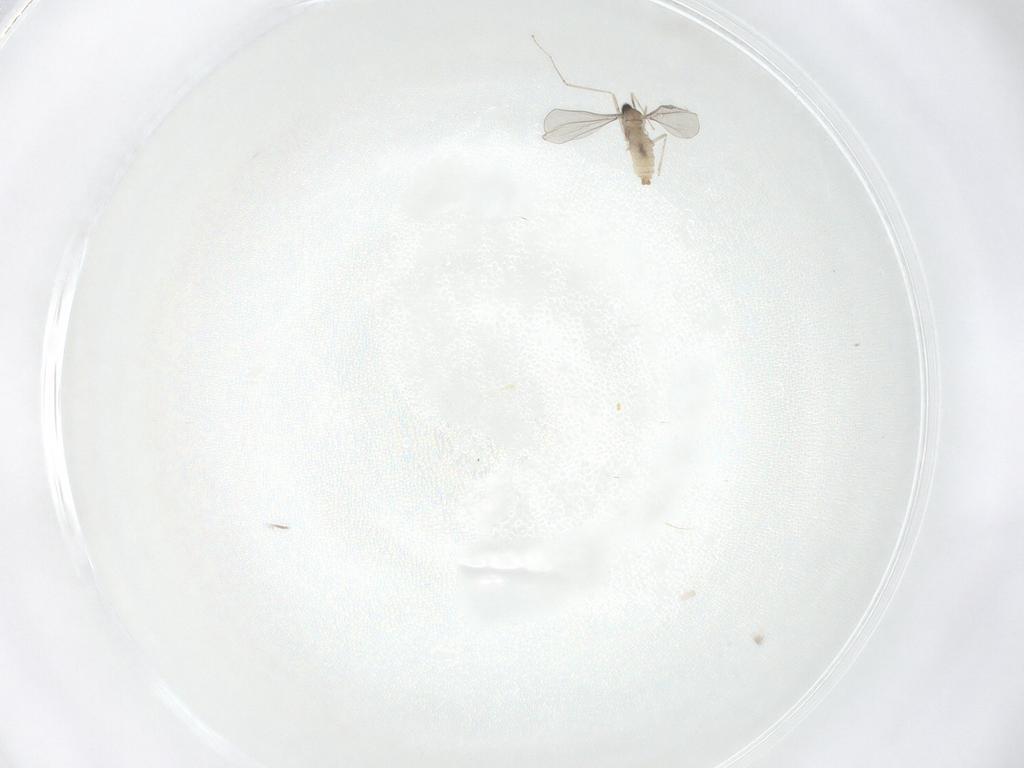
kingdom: Animalia
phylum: Arthropoda
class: Insecta
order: Diptera
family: Cecidomyiidae
